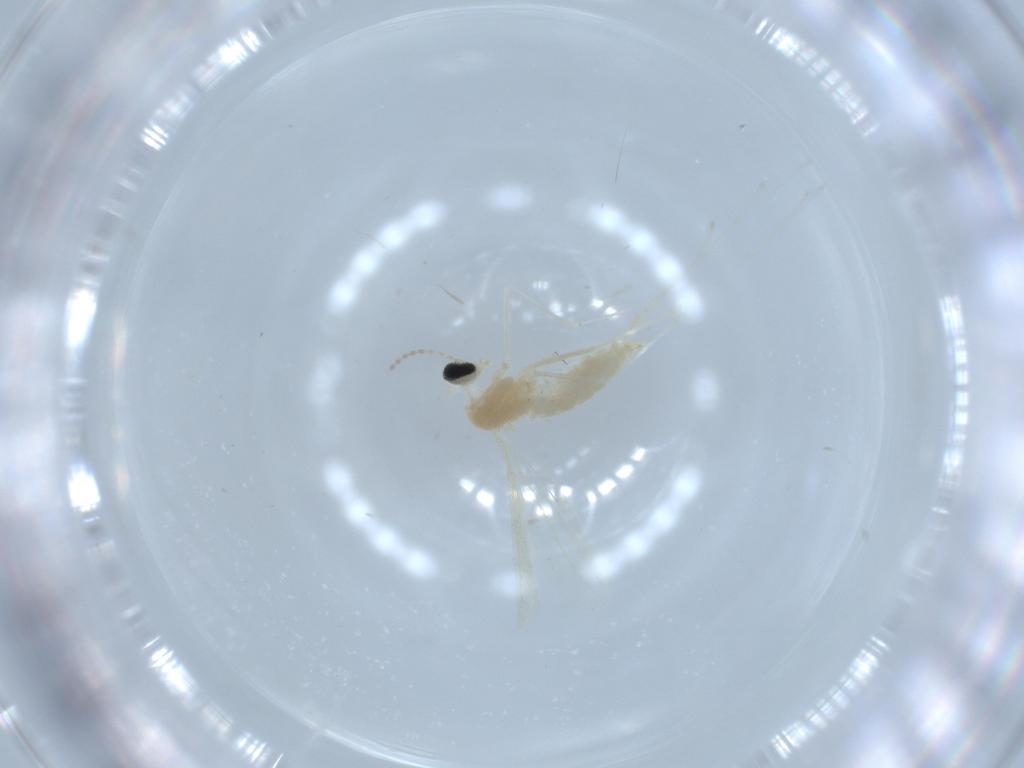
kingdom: Animalia
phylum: Arthropoda
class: Insecta
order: Diptera
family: Cecidomyiidae
